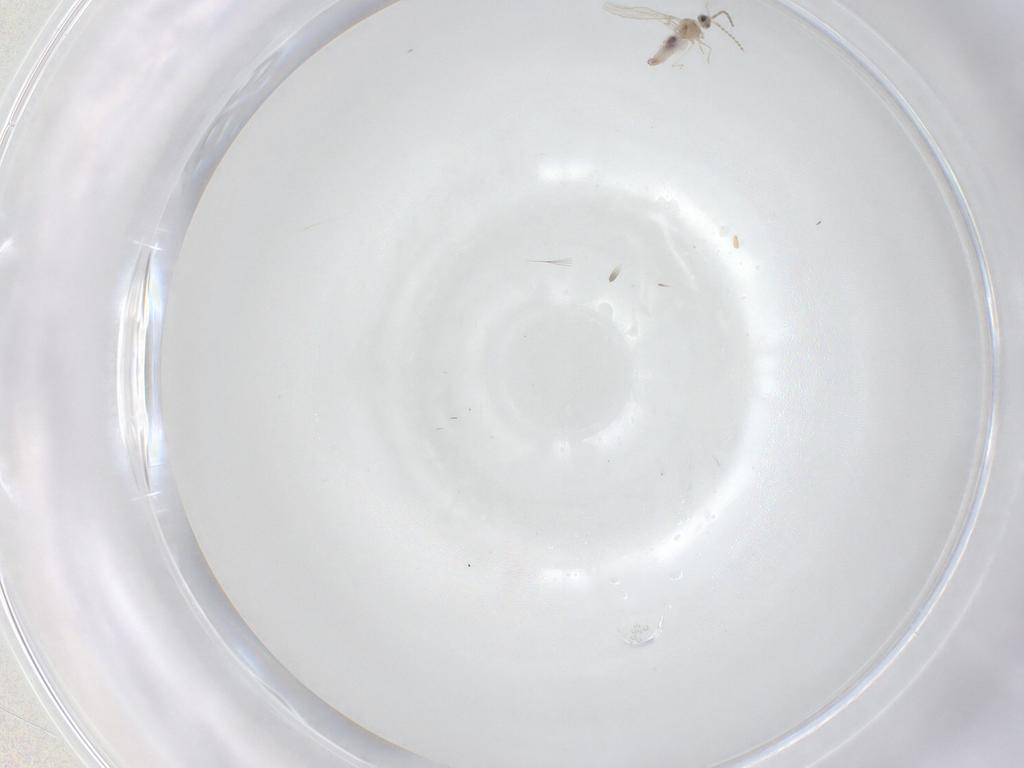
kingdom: Animalia
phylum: Arthropoda
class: Insecta
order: Diptera
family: Cecidomyiidae
